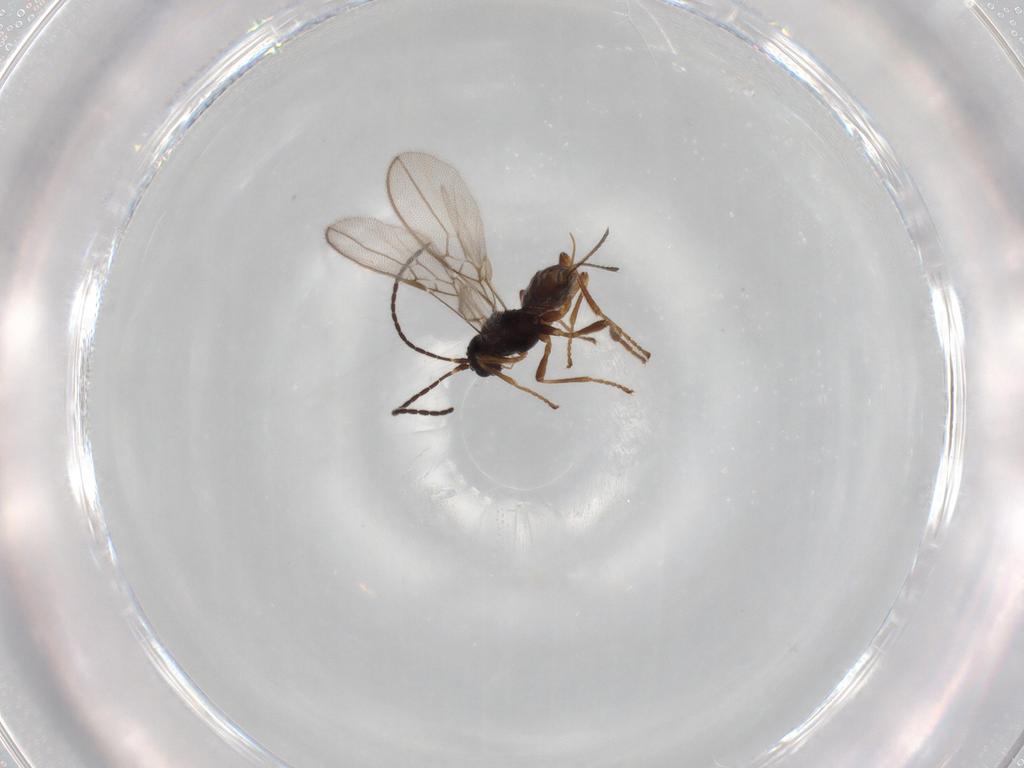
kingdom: Animalia
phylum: Arthropoda
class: Insecta
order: Hymenoptera
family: Braconidae
